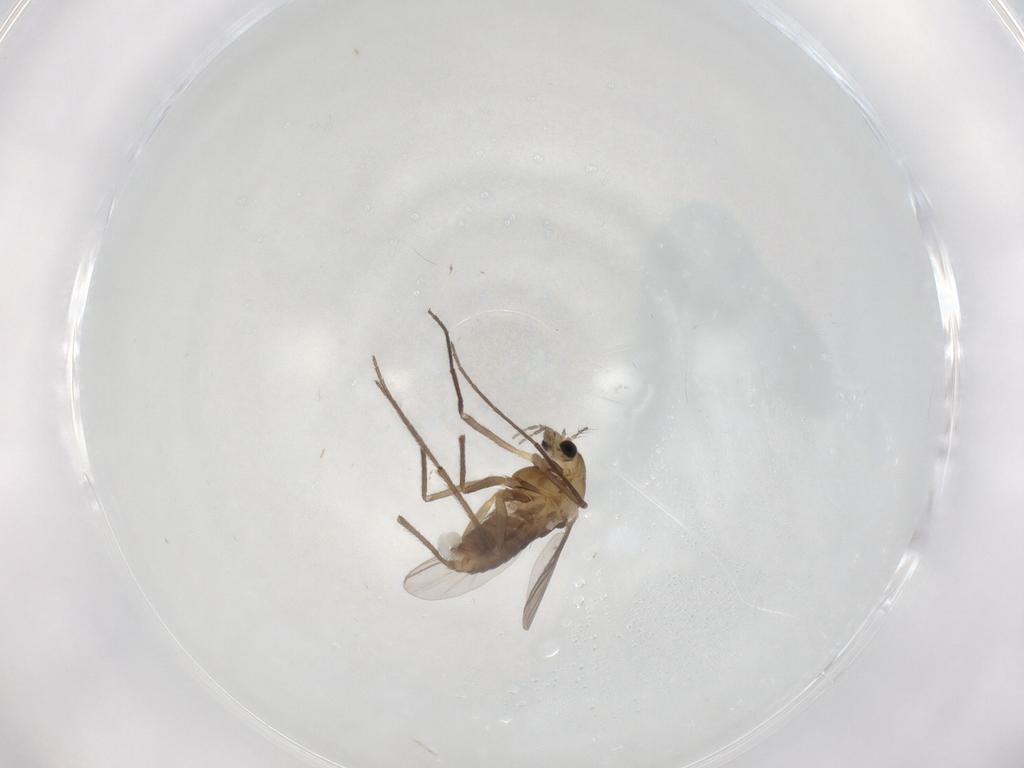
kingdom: Animalia
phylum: Arthropoda
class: Insecta
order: Diptera
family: Chironomidae
